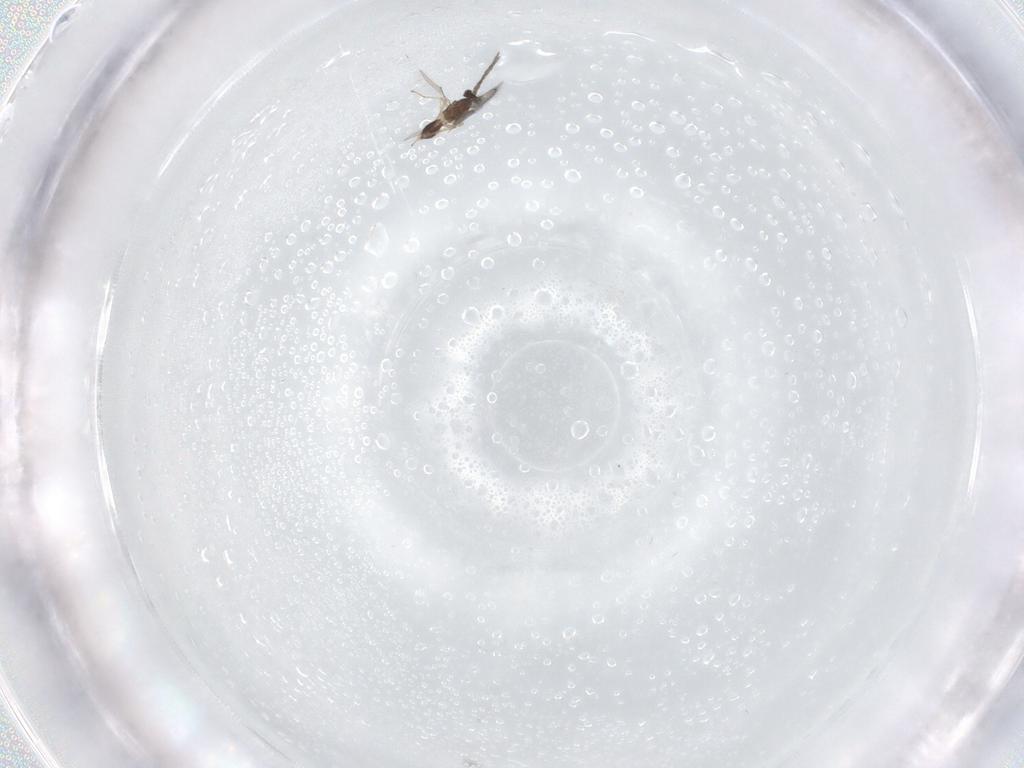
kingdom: Animalia
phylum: Arthropoda
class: Insecta
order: Hymenoptera
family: Eulophidae
